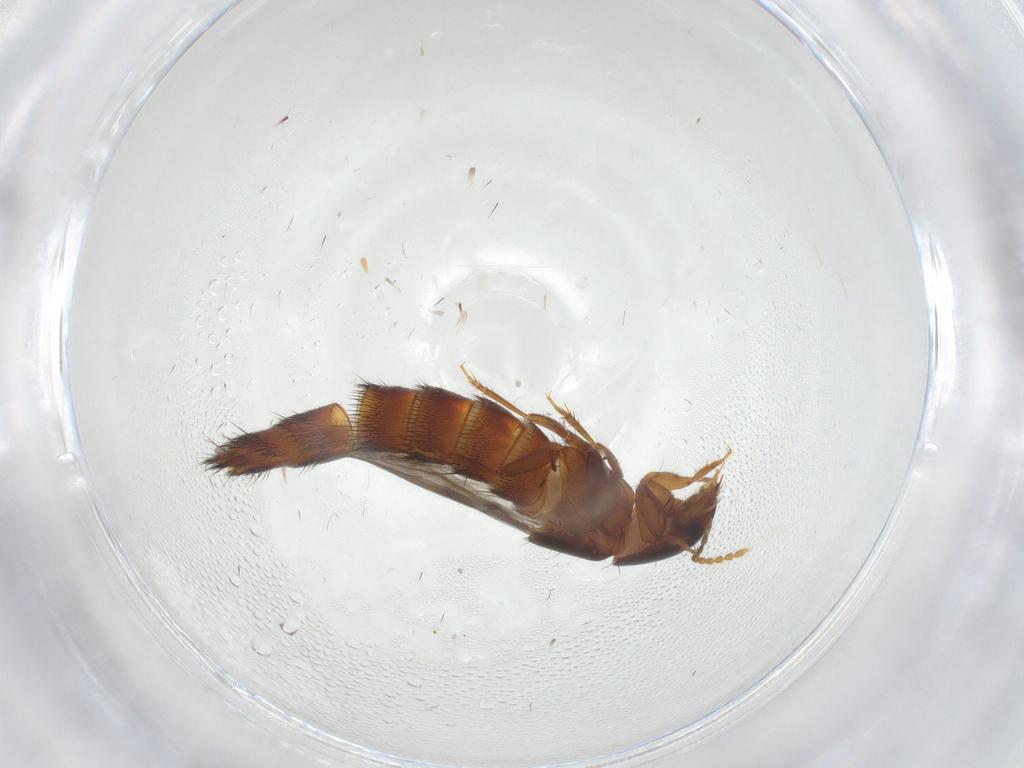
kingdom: Animalia
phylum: Arthropoda
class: Insecta
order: Coleoptera
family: Staphylinidae
